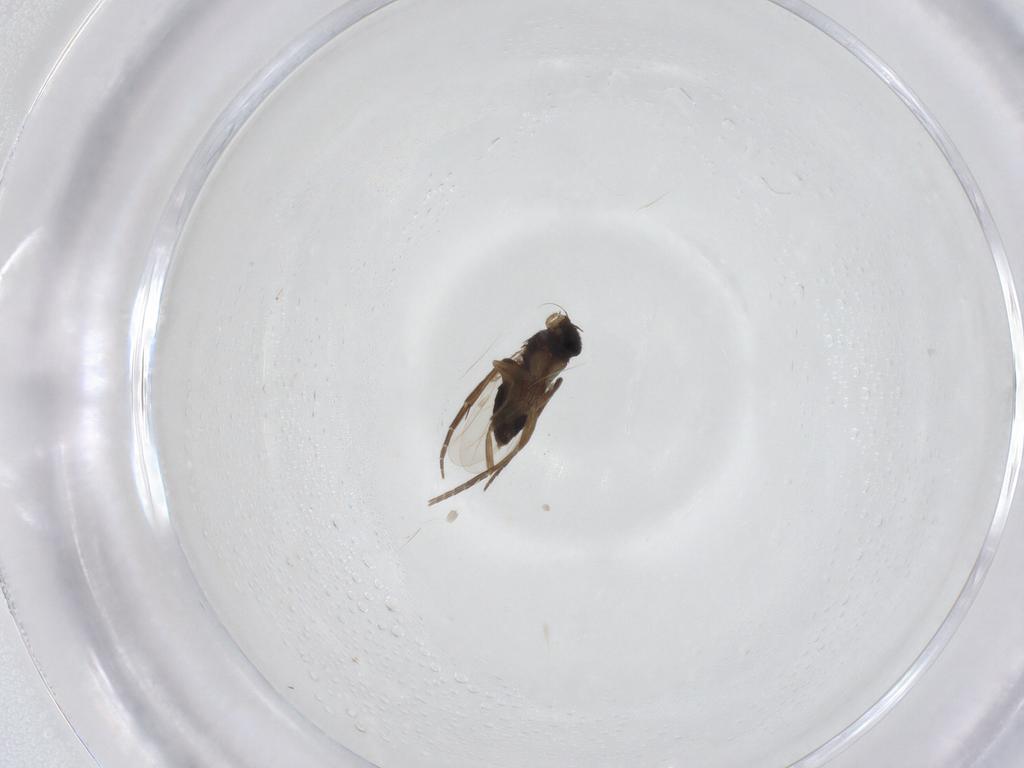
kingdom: Animalia
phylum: Arthropoda
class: Insecta
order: Diptera
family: Phoridae
